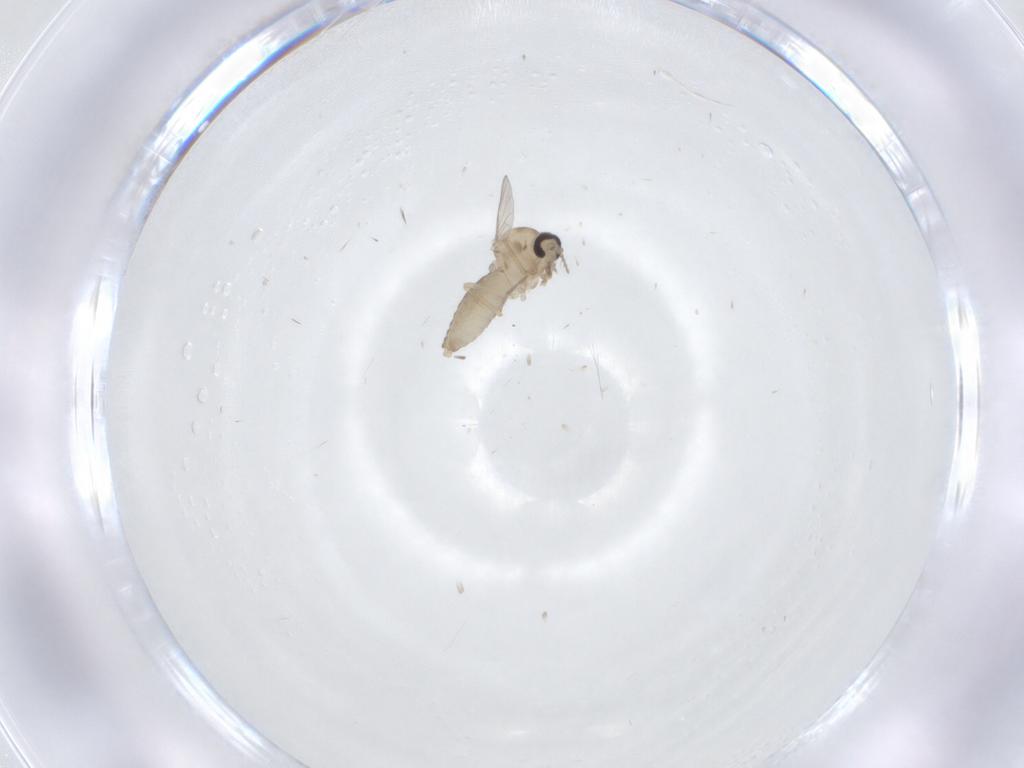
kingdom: Animalia
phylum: Arthropoda
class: Insecta
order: Diptera
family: Ceratopogonidae
